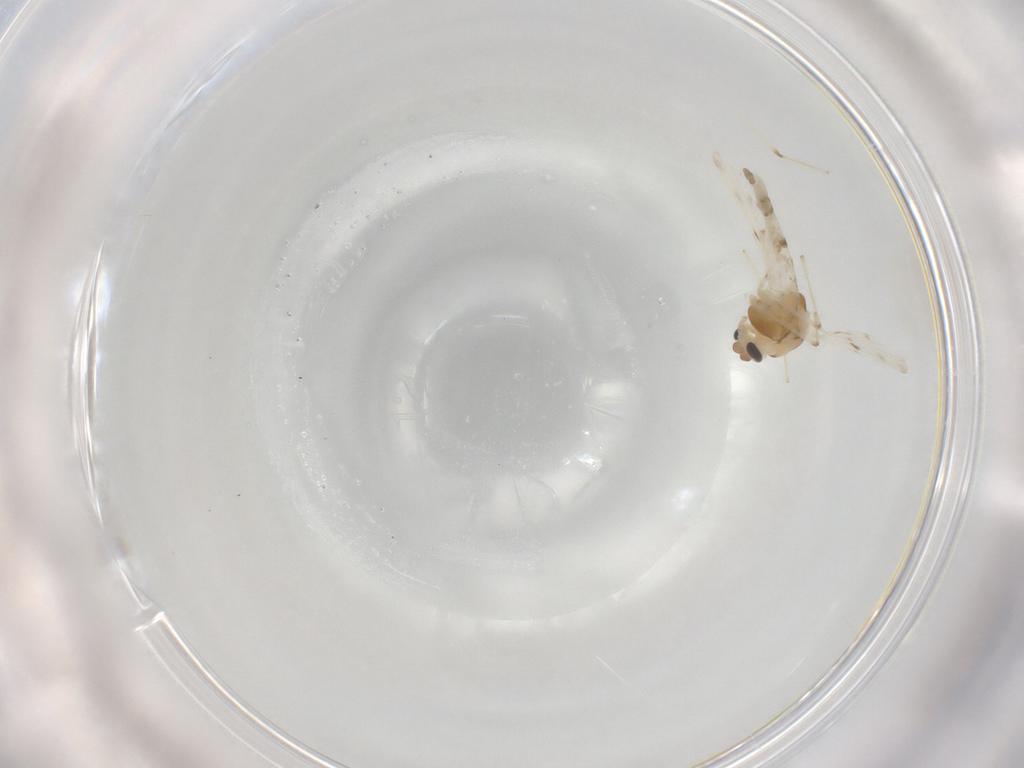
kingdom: Animalia
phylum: Arthropoda
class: Insecta
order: Diptera
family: Chironomidae
